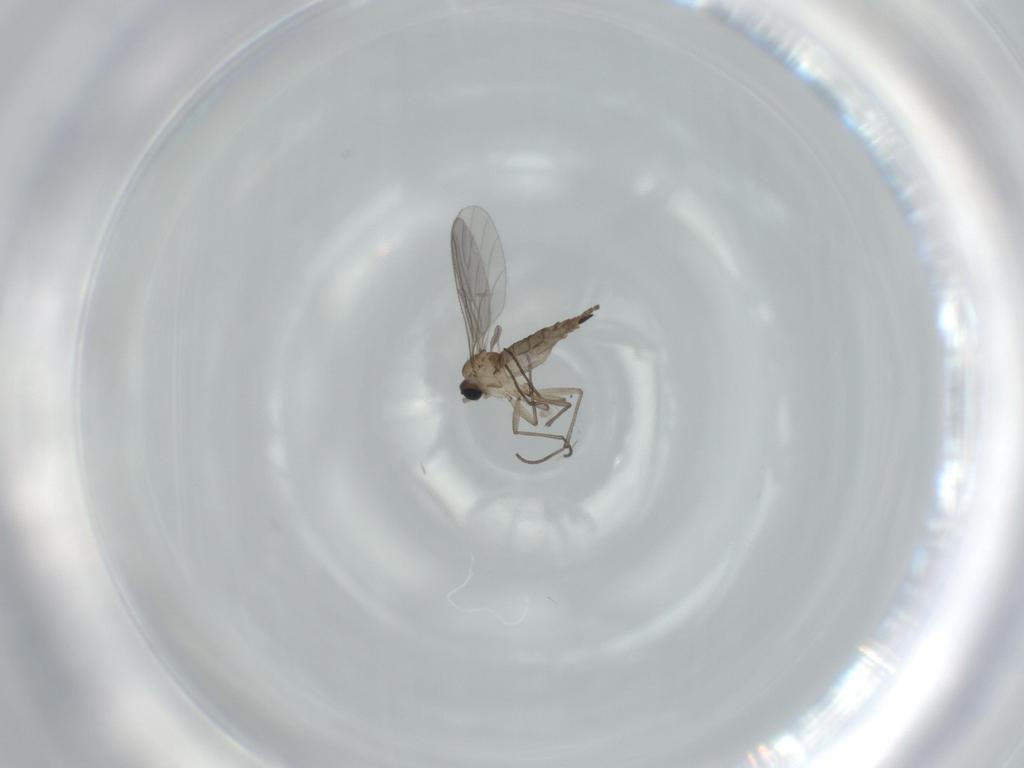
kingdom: Animalia
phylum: Arthropoda
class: Insecta
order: Diptera
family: Sciaridae
